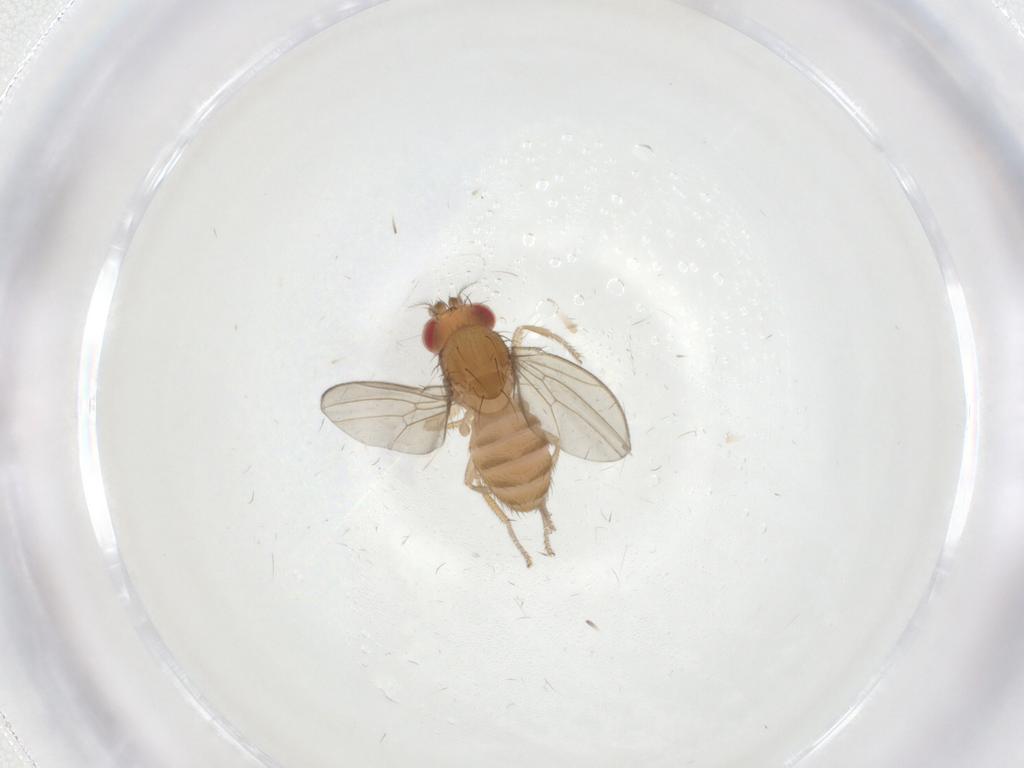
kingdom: Animalia
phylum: Arthropoda
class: Insecta
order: Diptera
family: Drosophilidae
